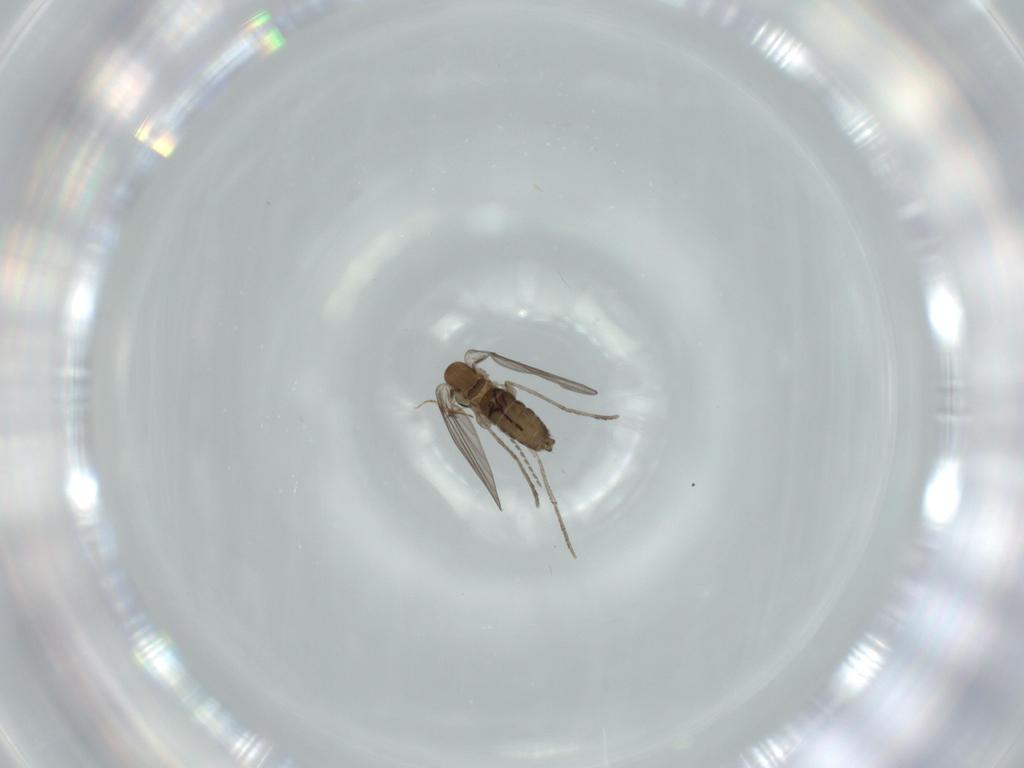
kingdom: Animalia
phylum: Arthropoda
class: Insecta
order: Diptera
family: Psychodidae
